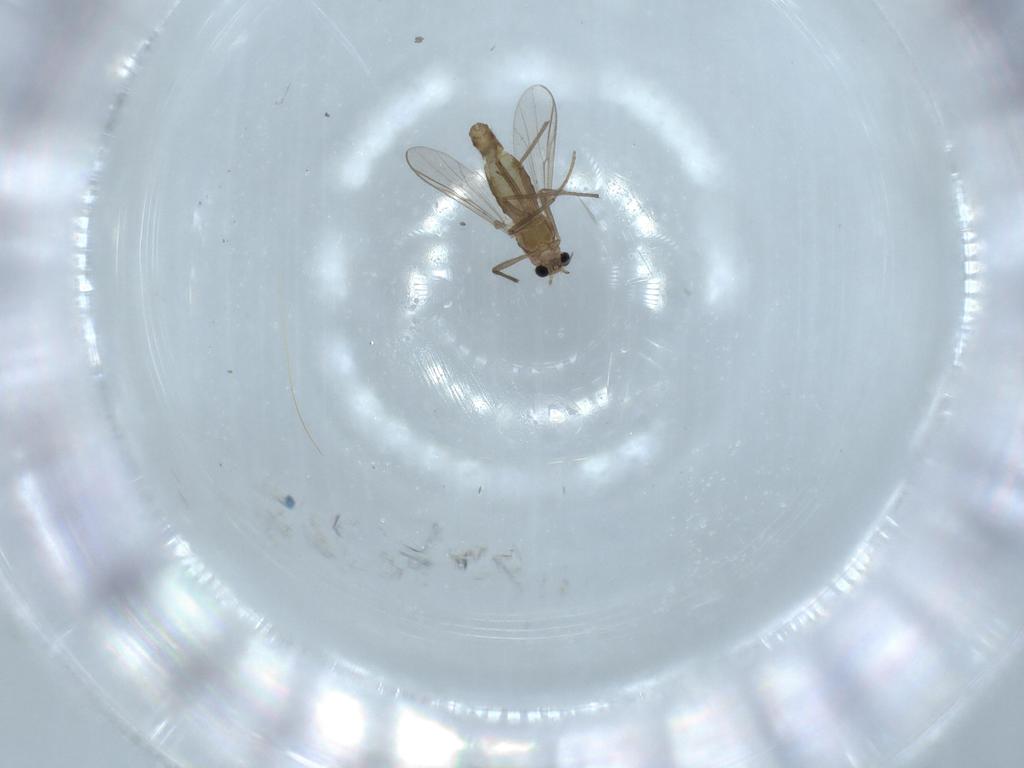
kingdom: Animalia
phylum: Arthropoda
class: Insecta
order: Diptera
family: Chironomidae
